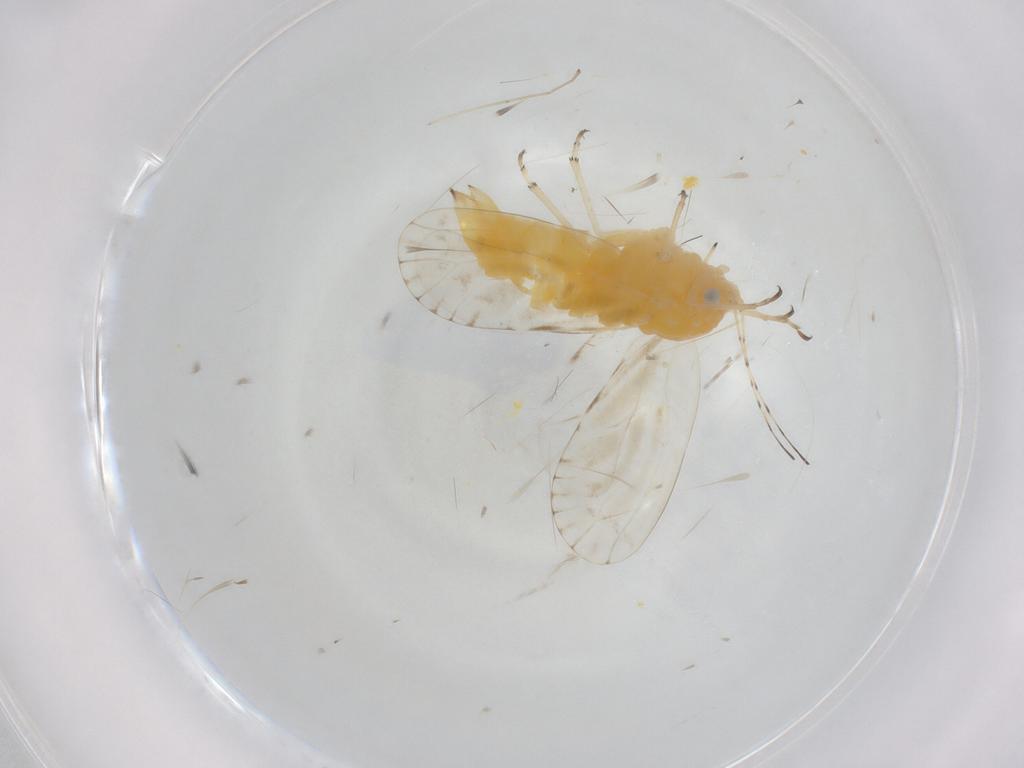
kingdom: Animalia
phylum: Arthropoda
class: Insecta
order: Hemiptera
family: Aleyrodidae
